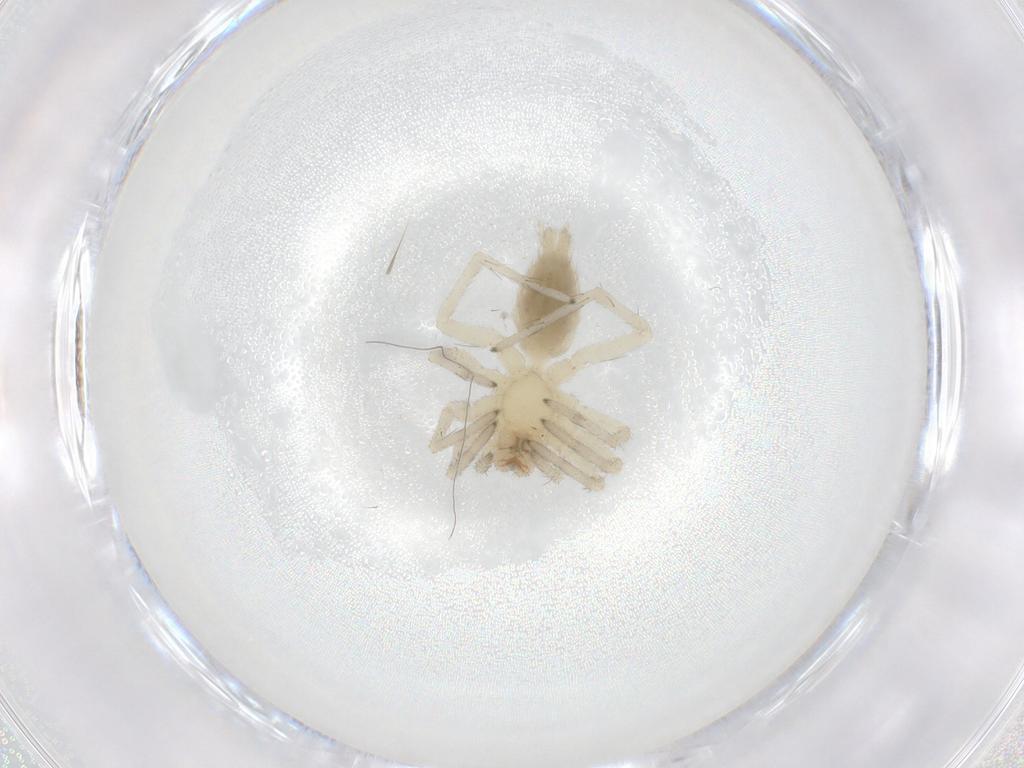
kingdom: Animalia
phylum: Arthropoda
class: Arachnida
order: Araneae
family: Anyphaenidae
